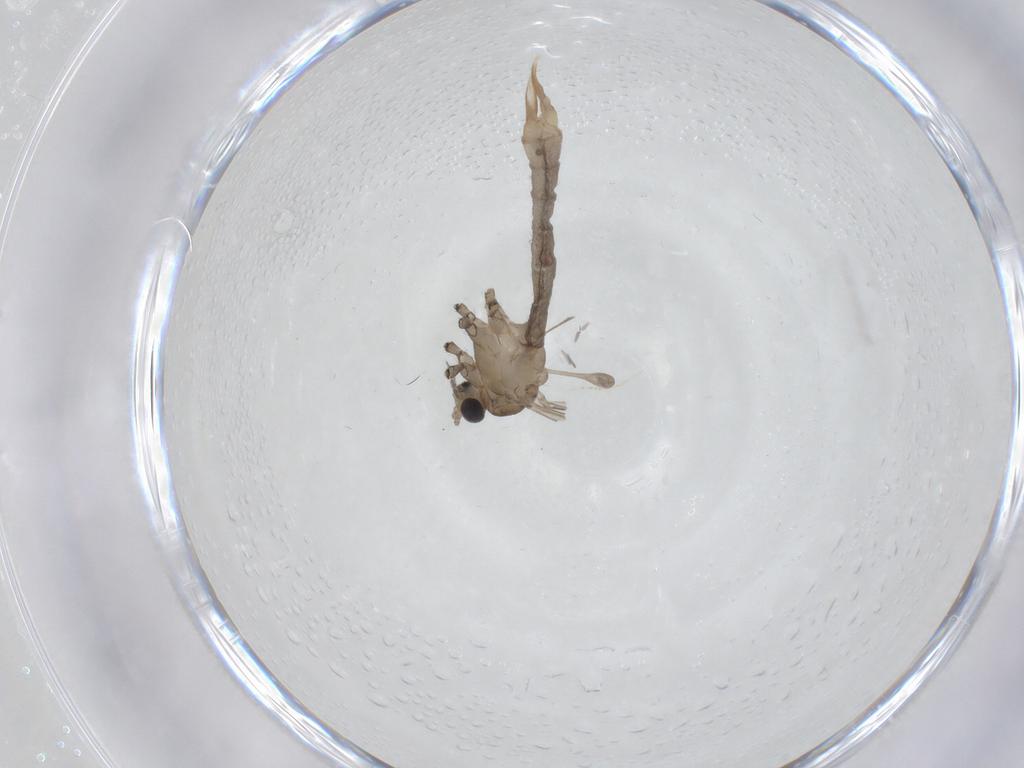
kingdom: Animalia
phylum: Arthropoda
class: Insecta
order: Diptera
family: Limoniidae
